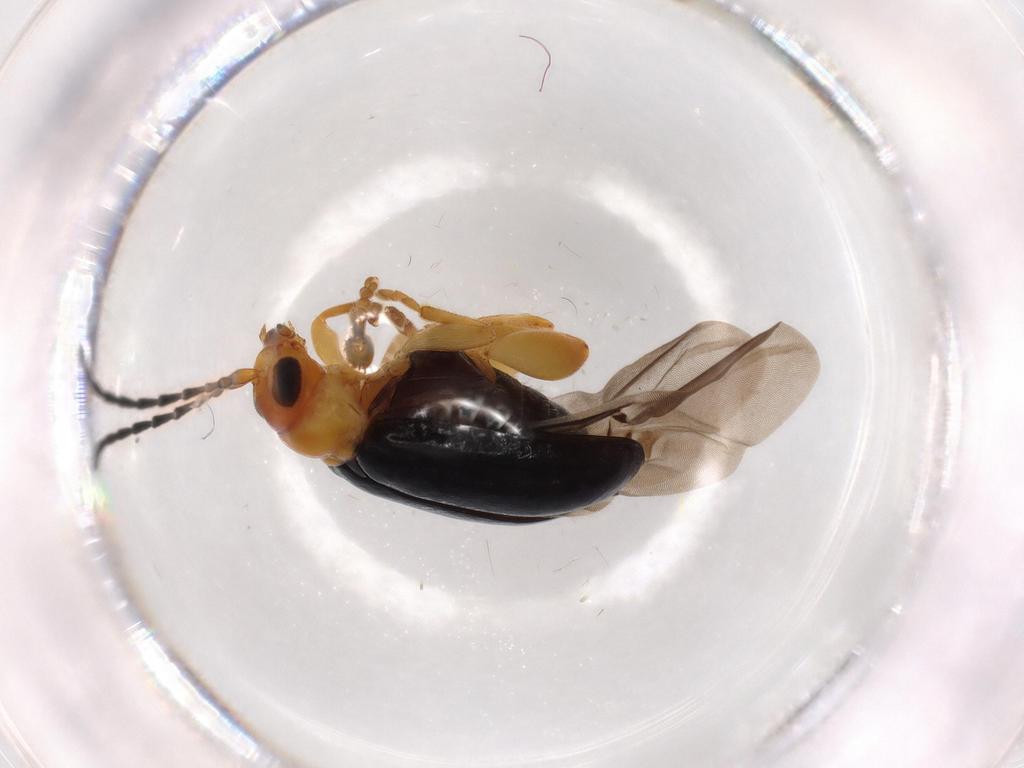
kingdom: Animalia
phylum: Arthropoda
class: Insecta
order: Coleoptera
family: Chrysomelidae
